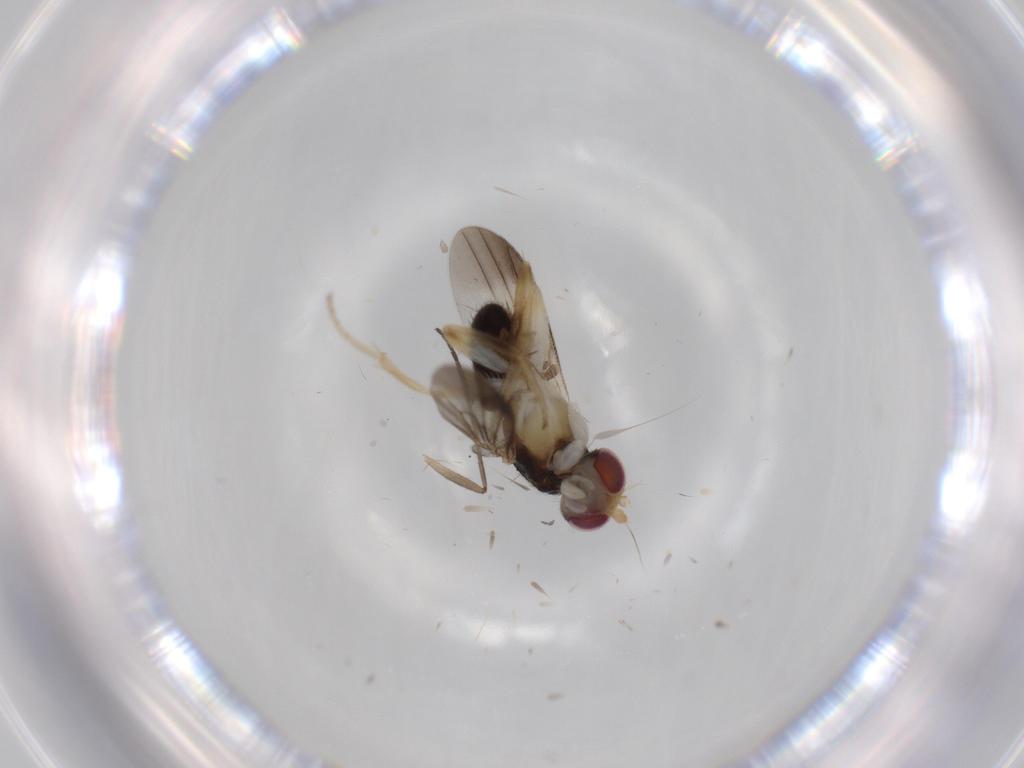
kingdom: Animalia
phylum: Arthropoda
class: Insecta
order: Diptera
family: Clusiidae
